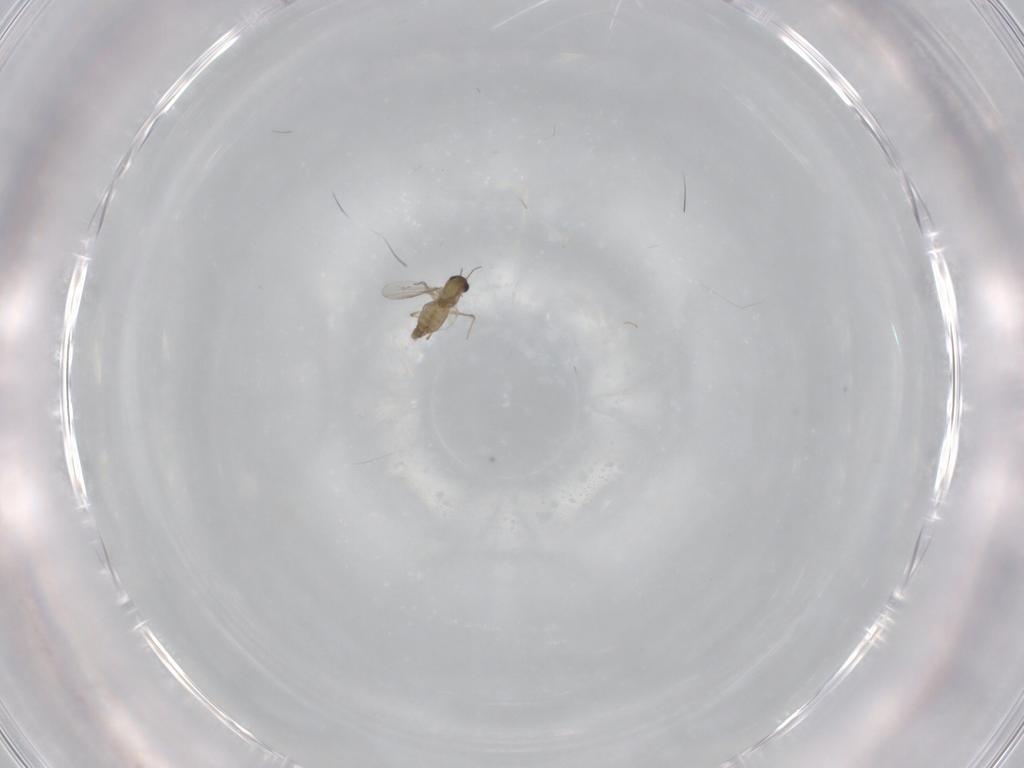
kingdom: Animalia
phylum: Arthropoda
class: Insecta
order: Diptera
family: Chironomidae
